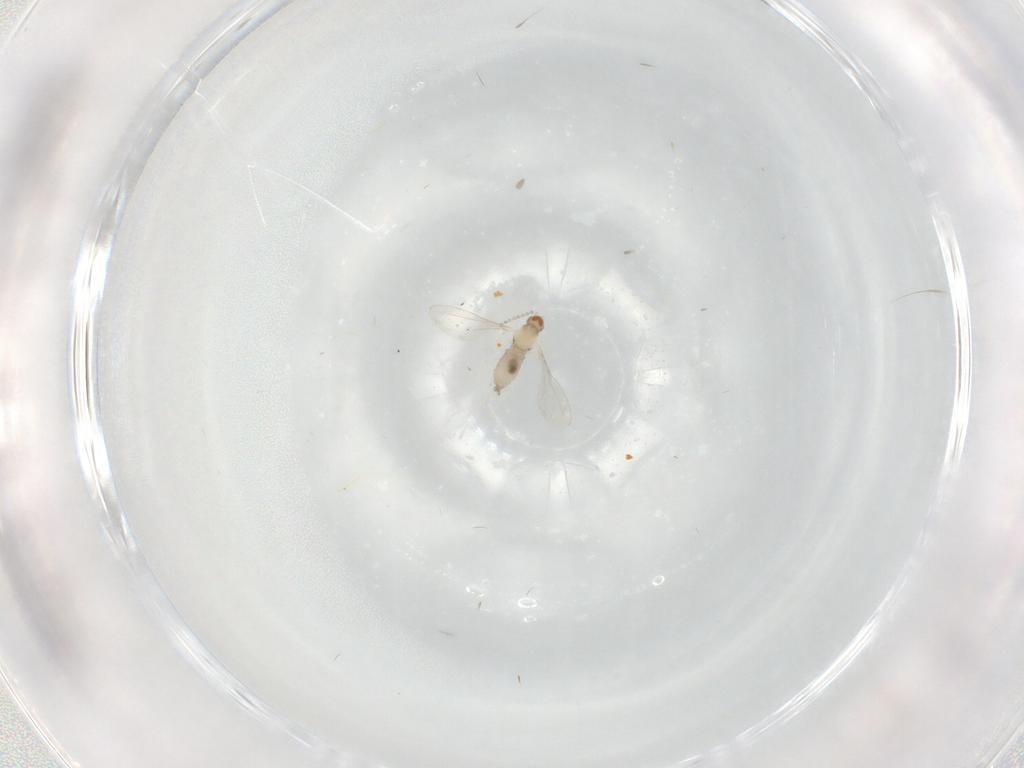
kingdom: Animalia
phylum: Arthropoda
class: Insecta
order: Diptera
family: Cecidomyiidae
